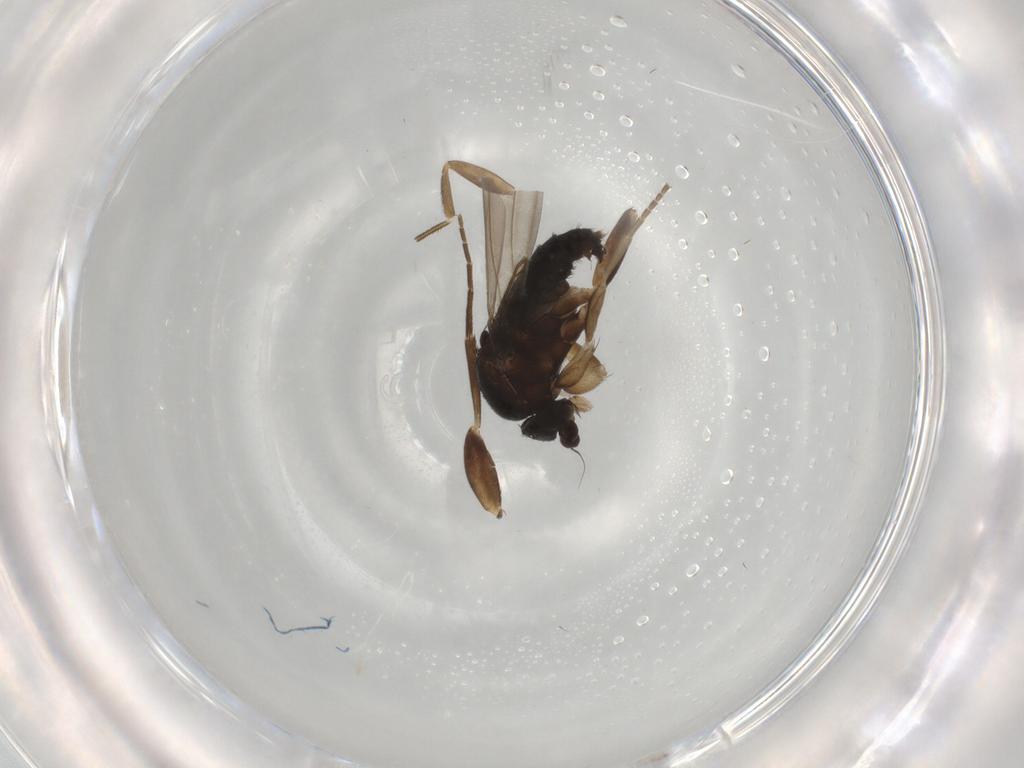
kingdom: Animalia
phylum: Arthropoda
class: Insecta
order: Diptera
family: Phoridae
